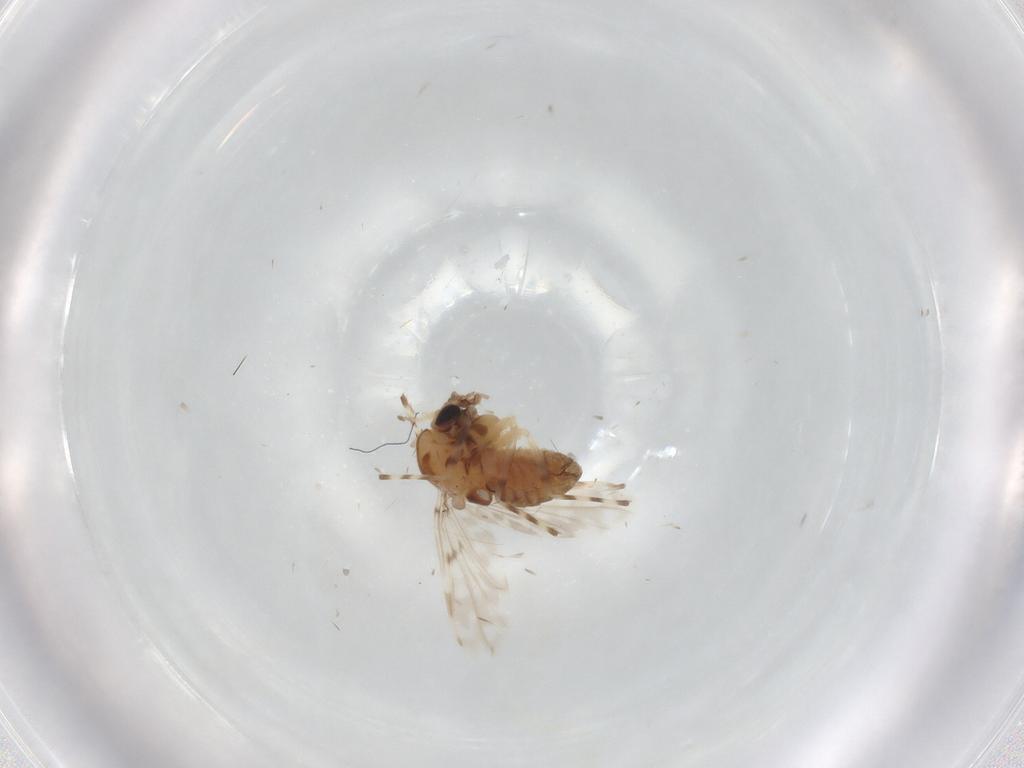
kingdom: Animalia
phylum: Arthropoda
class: Insecta
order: Diptera
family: Chironomidae
